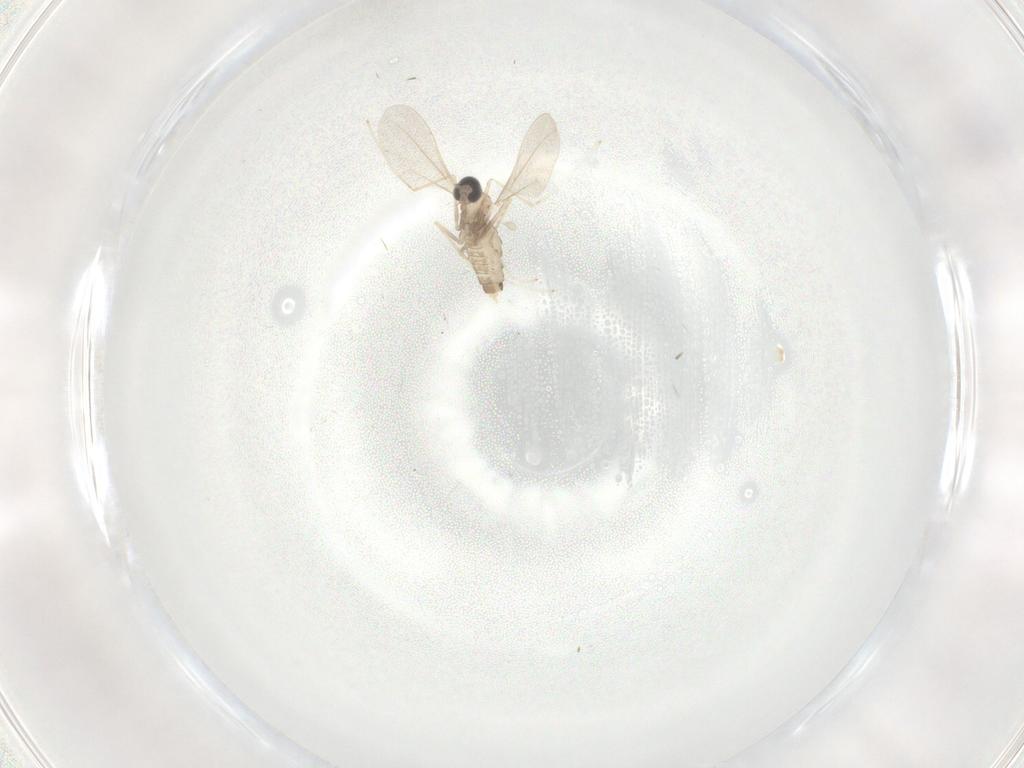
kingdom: Animalia
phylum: Arthropoda
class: Insecta
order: Diptera
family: Cecidomyiidae
